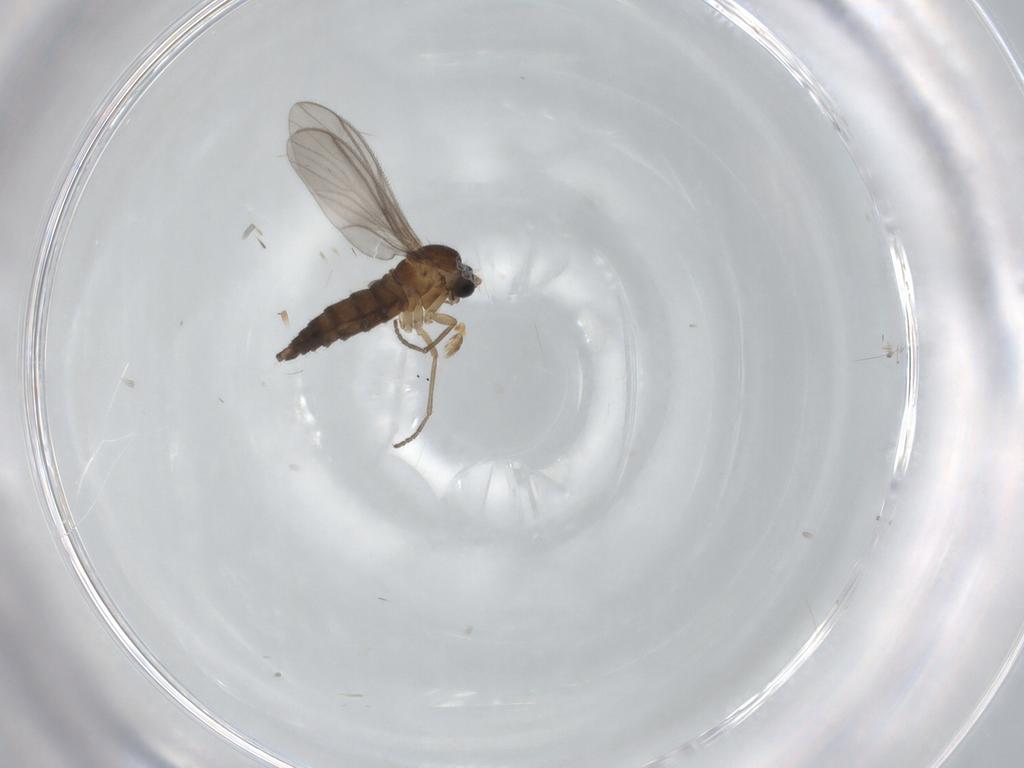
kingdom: Animalia
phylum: Arthropoda
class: Insecta
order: Diptera
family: Sciaridae
